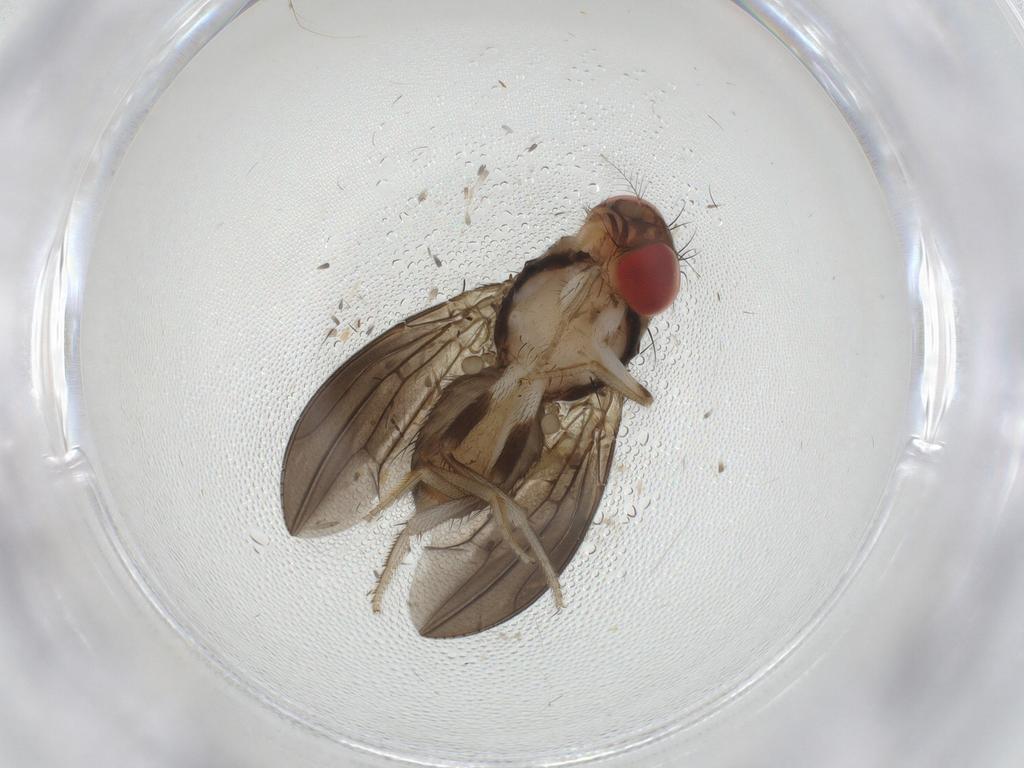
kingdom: Animalia
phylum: Arthropoda
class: Insecta
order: Diptera
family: Drosophilidae
